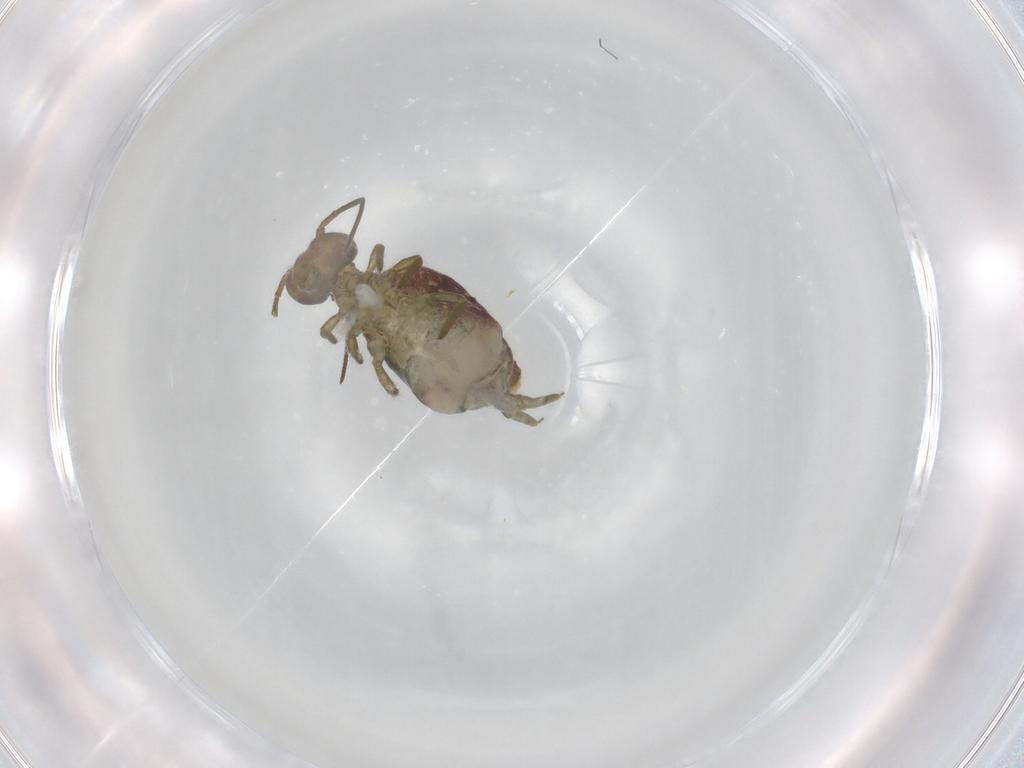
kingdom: Animalia
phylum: Arthropoda
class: Collembola
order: Symphypleona
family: Sminthuridae
